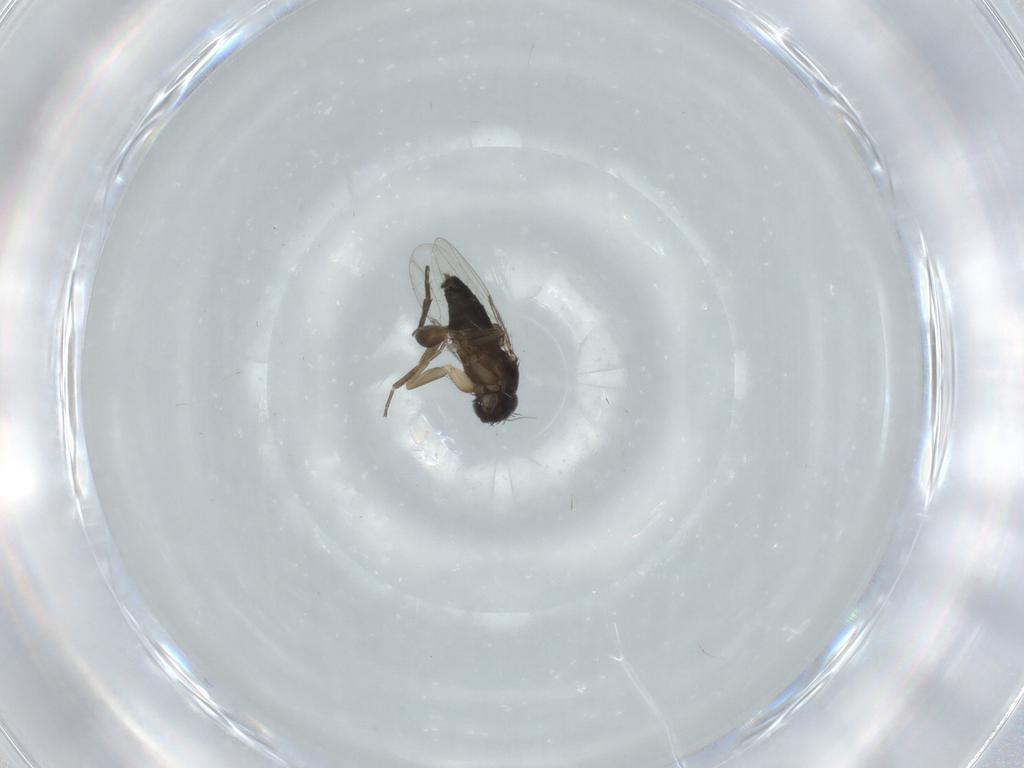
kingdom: Animalia
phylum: Arthropoda
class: Insecta
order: Diptera
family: Phoridae
